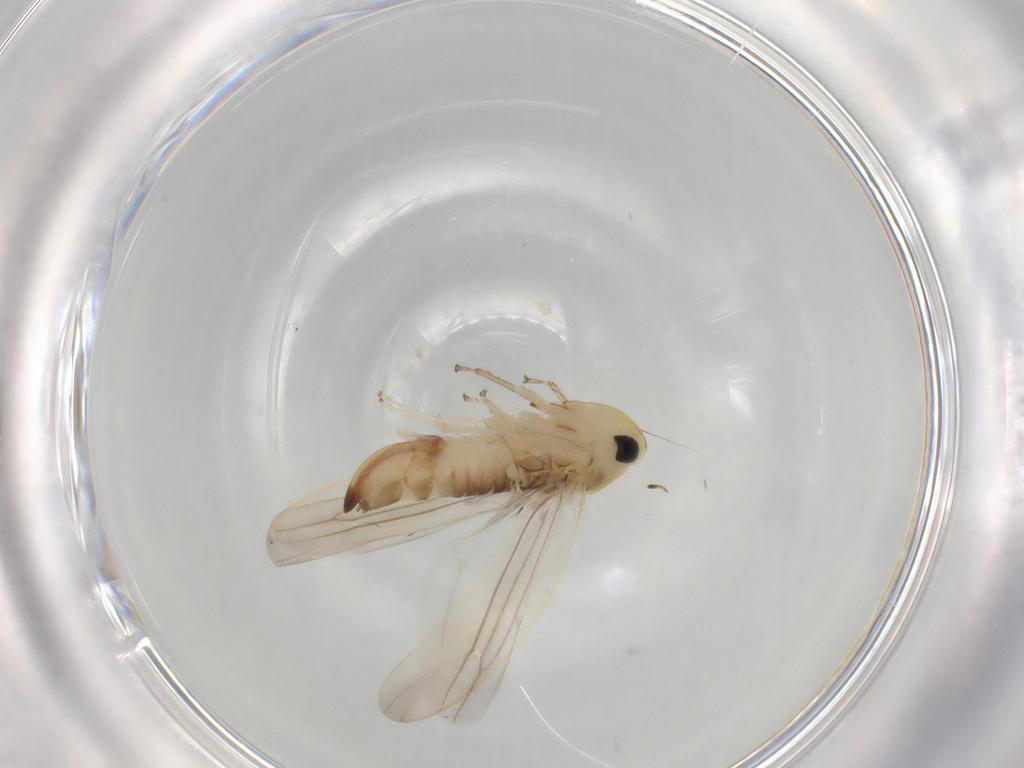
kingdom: Animalia
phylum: Arthropoda
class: Insecta
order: Hemiptera
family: Cicadellidae
